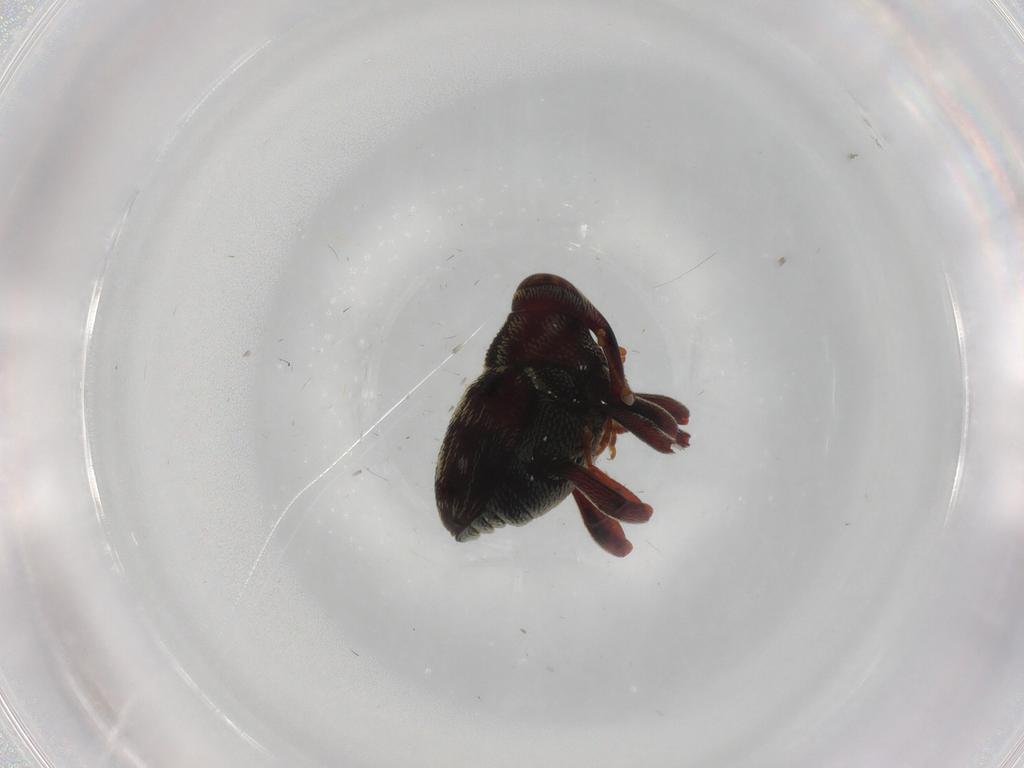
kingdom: Animalia
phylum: Arthropoda
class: Insecta
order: Coleoptera
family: Curculionidae
